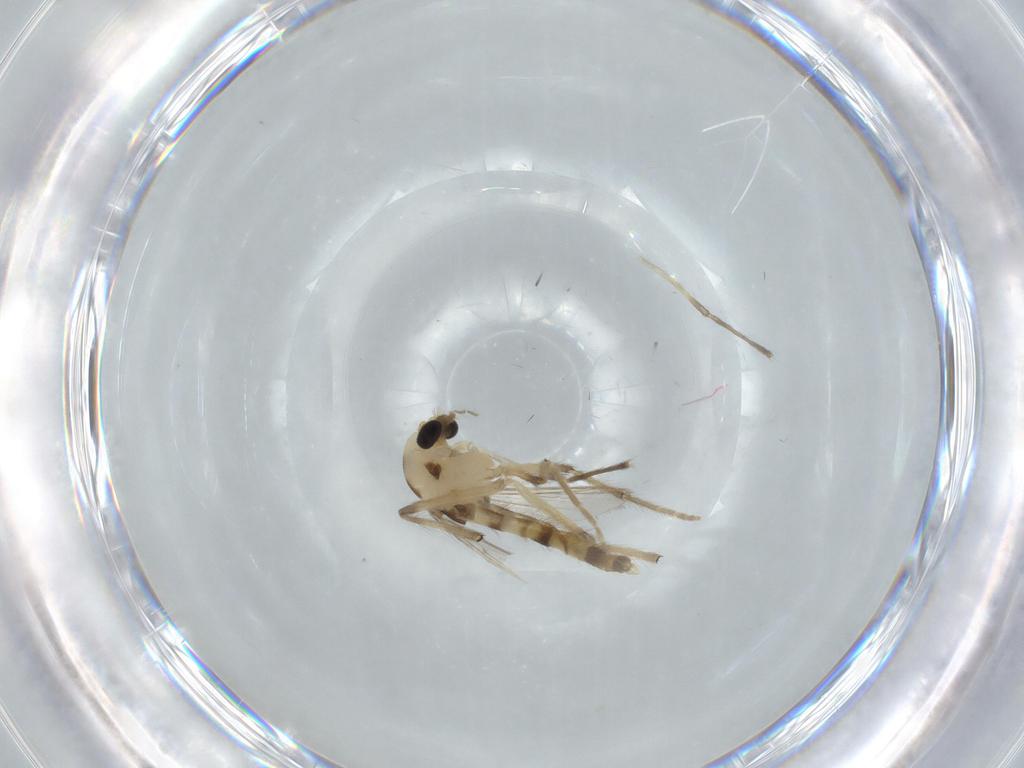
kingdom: Animalia
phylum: Arthropoda
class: Insecta
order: Diptera
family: Chironomidae
